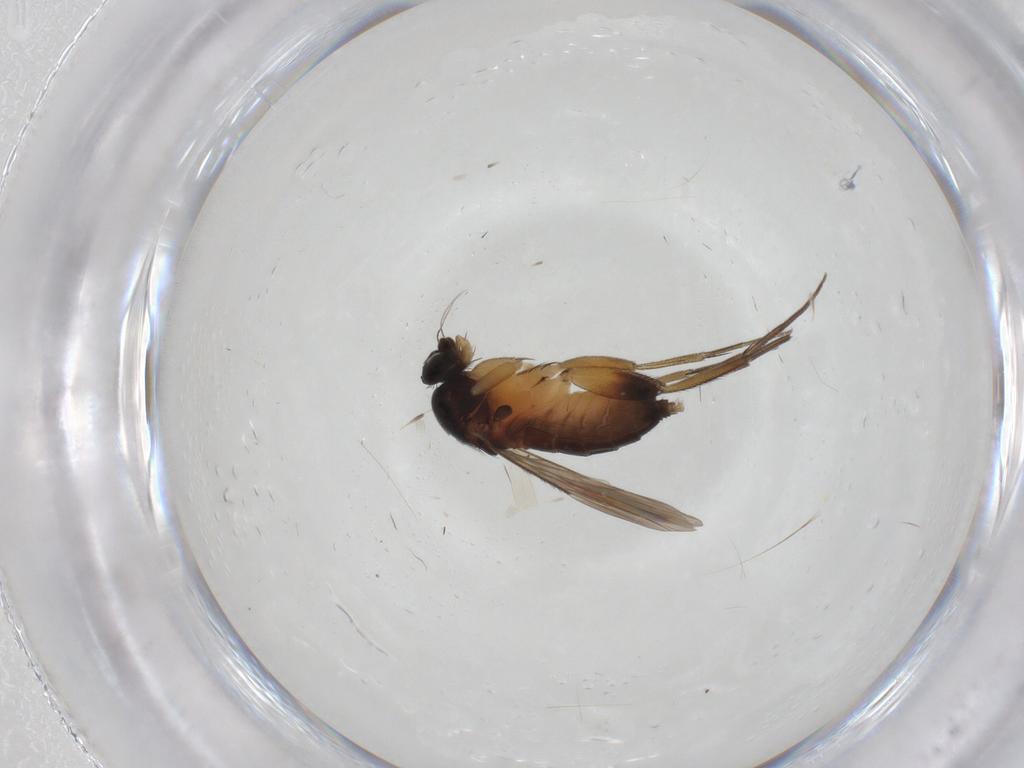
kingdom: Animalia
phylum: Arthropoda
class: Insecta
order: Diptera
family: Phoridae
